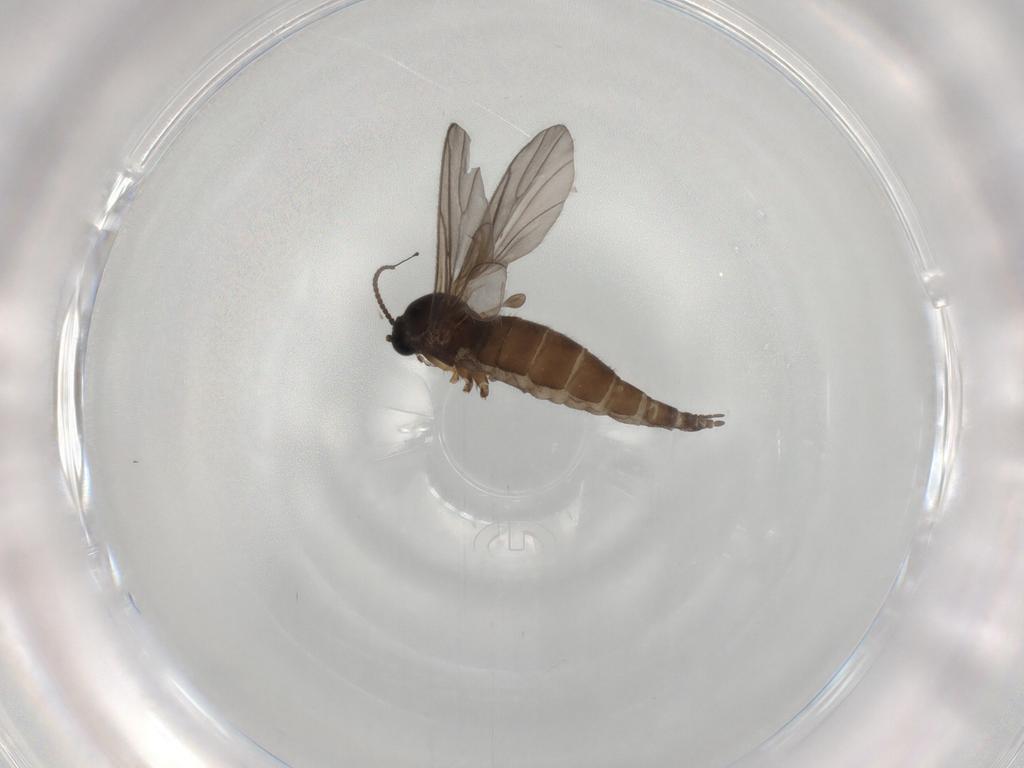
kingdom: Animalia
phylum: Arthropoda
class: Insecta
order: Diptera
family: Sciaridae
